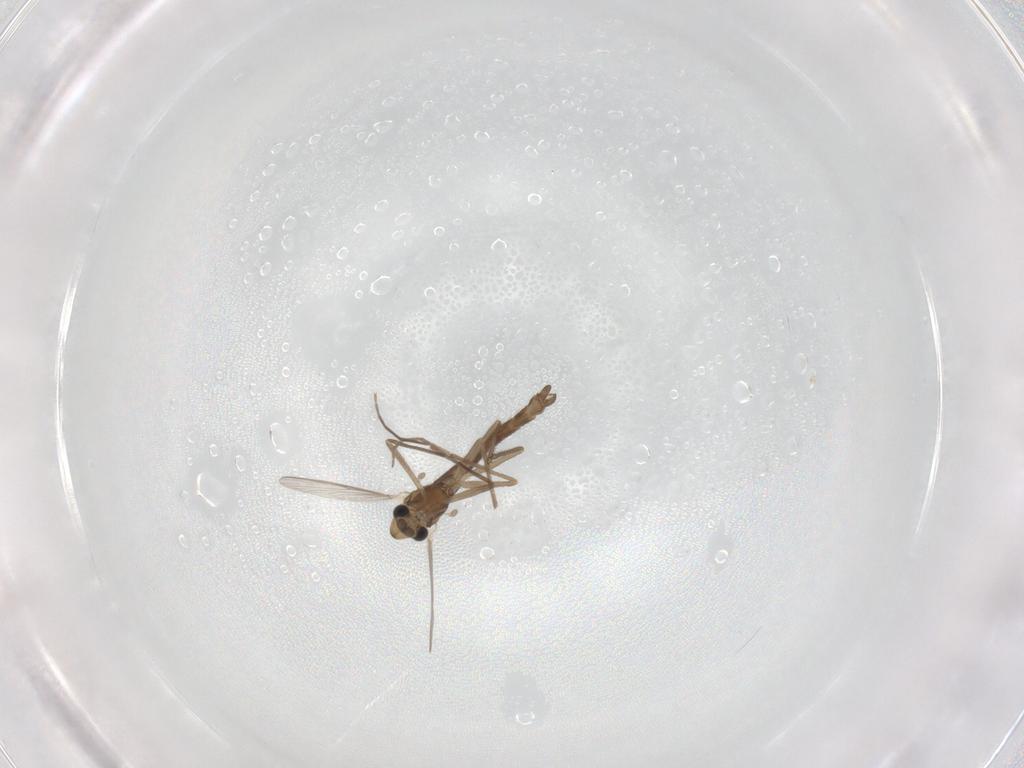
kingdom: Animalia
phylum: Arthropoda
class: Insecta
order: Diptera
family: Chironomidae
